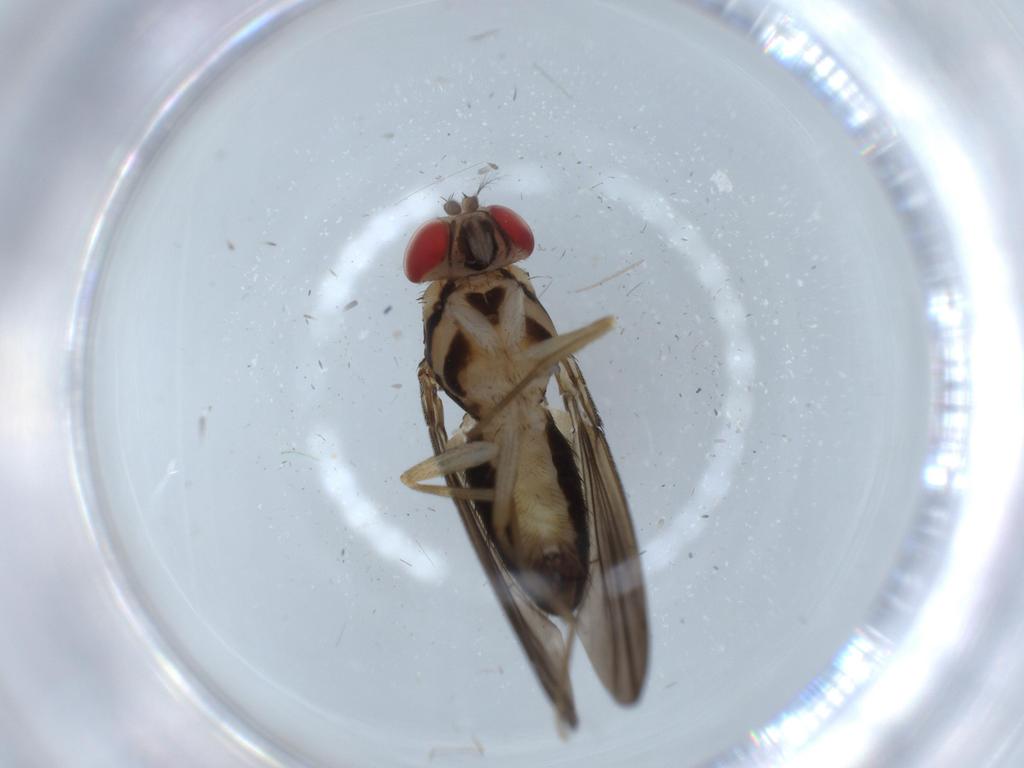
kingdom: Animalia
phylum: Arthropoda
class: Insecta
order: Diptera
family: Drosophilidae
